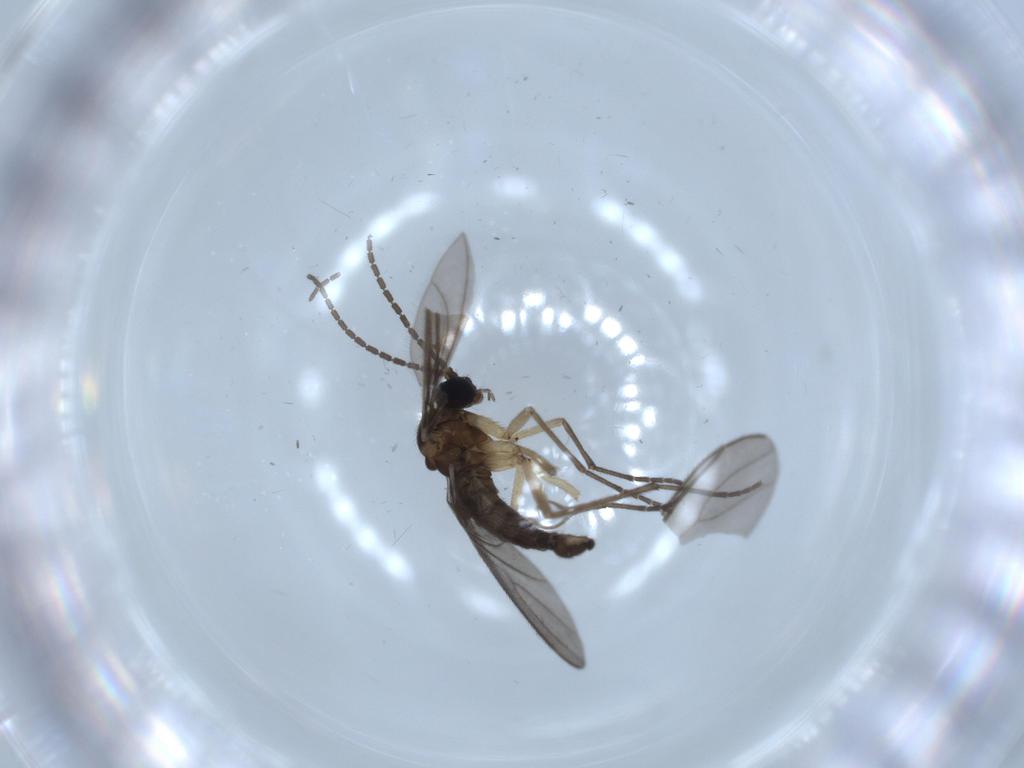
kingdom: Animalia
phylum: Arthropoda
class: Insecta
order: Diptera
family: Sciaridae
